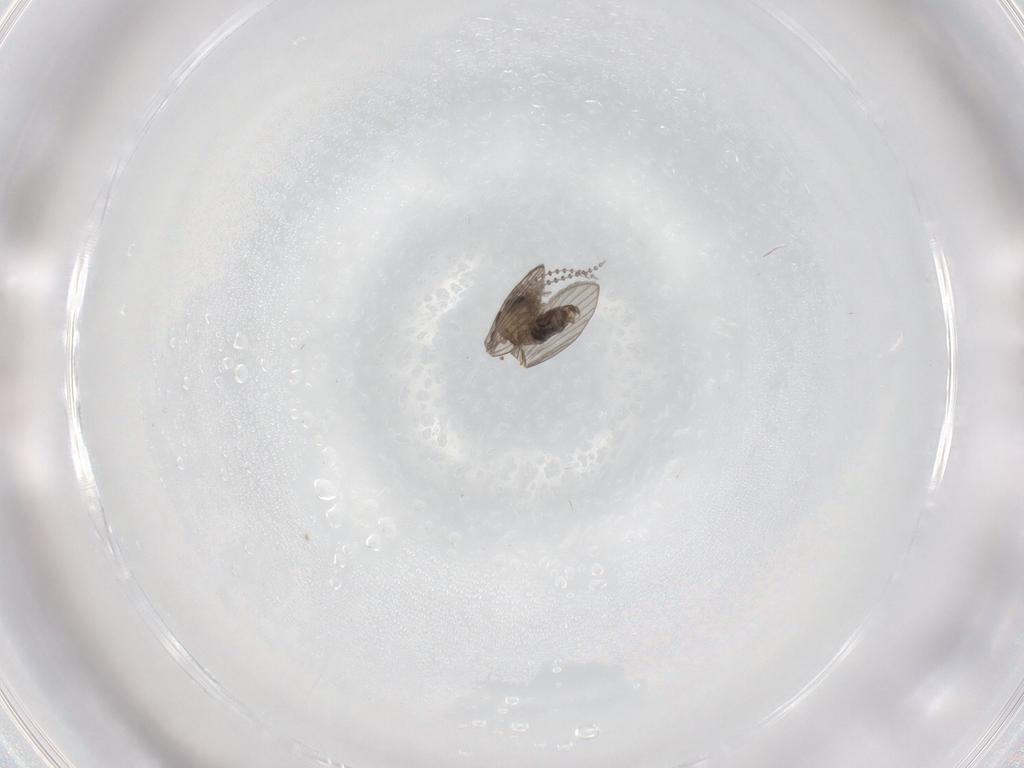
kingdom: Animalia
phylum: Arthropoda
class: Insecta
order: Diptera
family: Psychodidae
